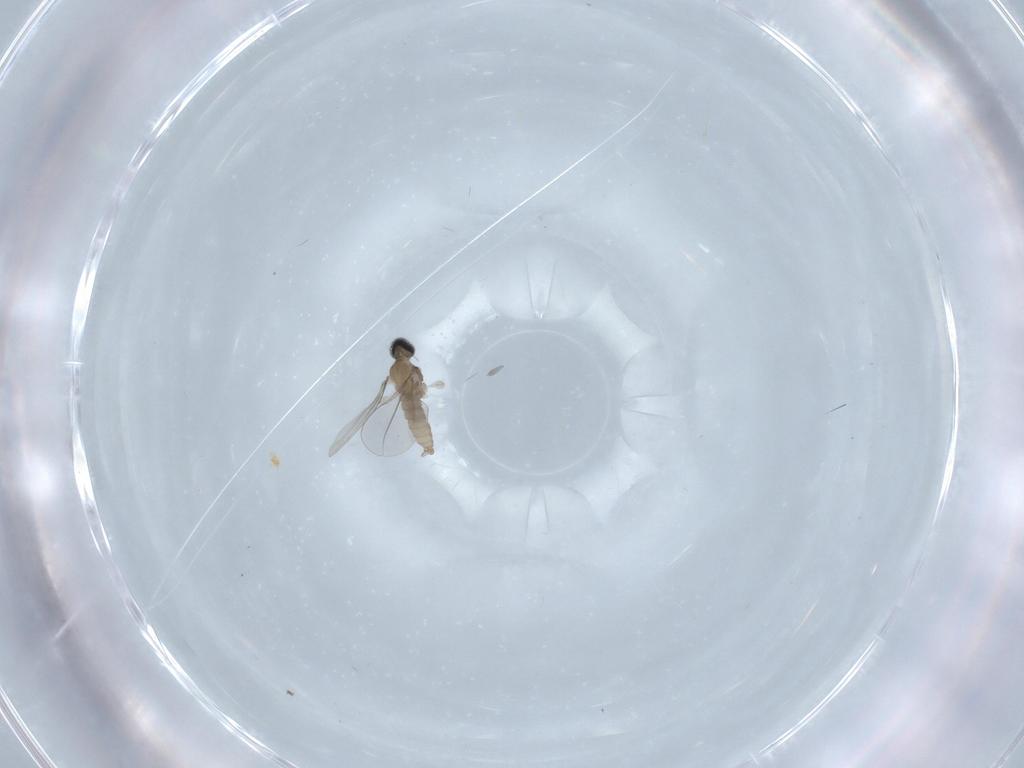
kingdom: Animalia
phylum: Arthropoda
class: Insecta
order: Diptera
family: Cecidomyiidae
